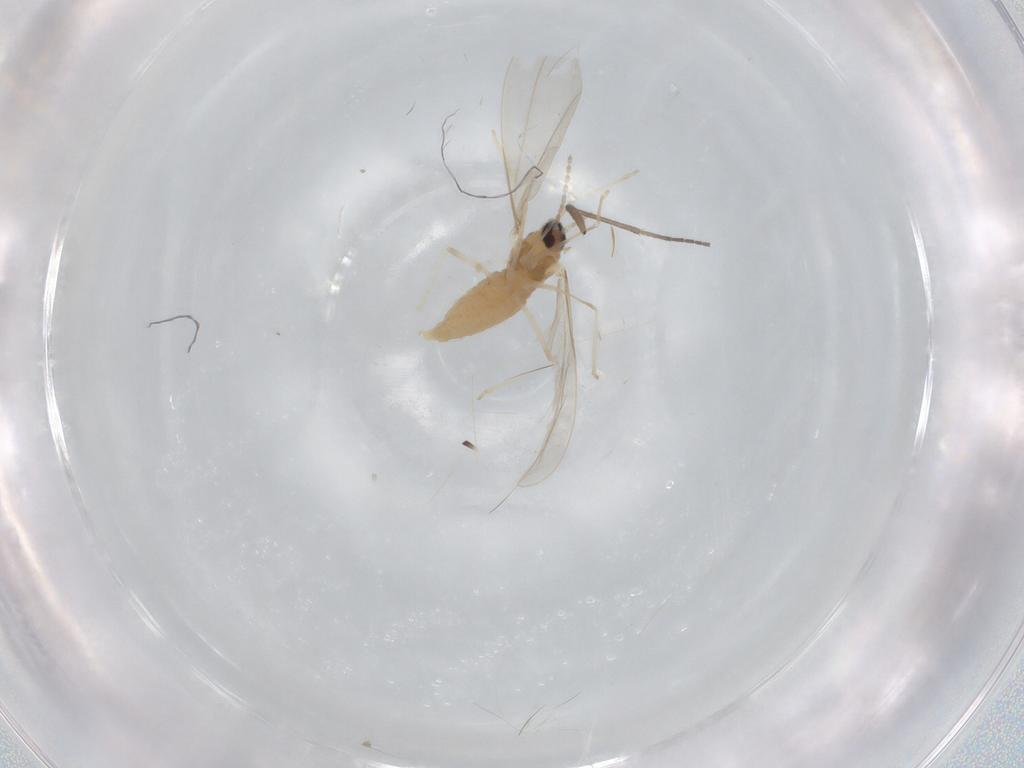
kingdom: Animalia
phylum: Arthropoda
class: Insecta
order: Diptera
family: Cecidomyiidae
